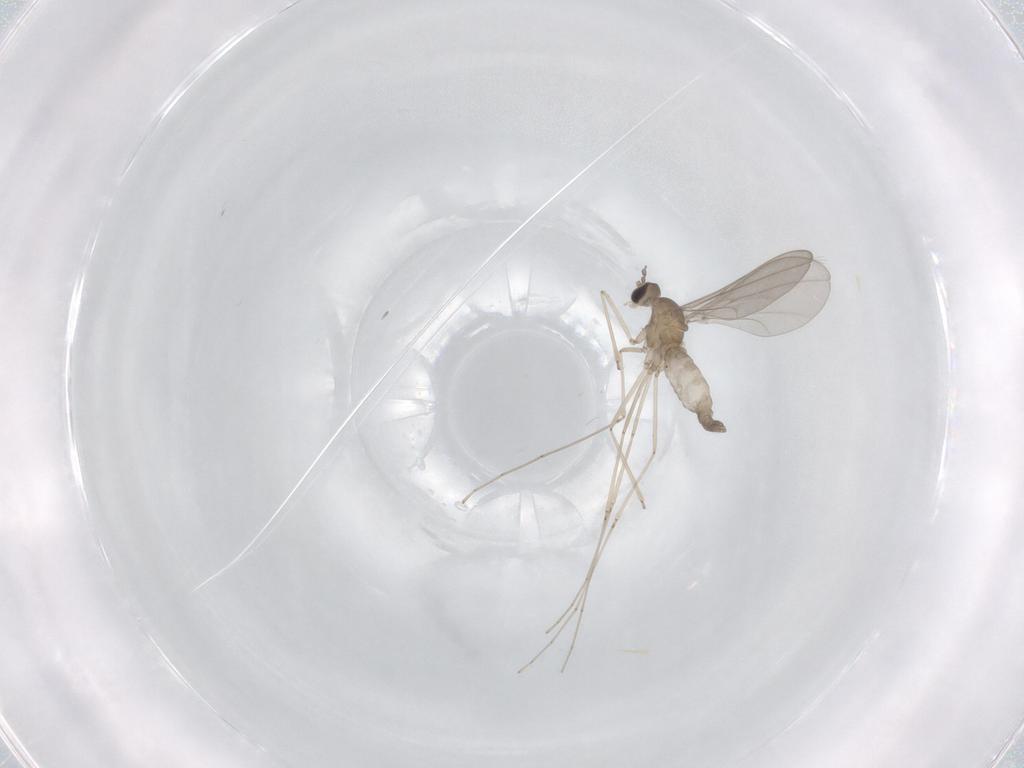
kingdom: Animalia
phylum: Arthropoda
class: Insecta
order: Diptera
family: Cecidomyiidae
